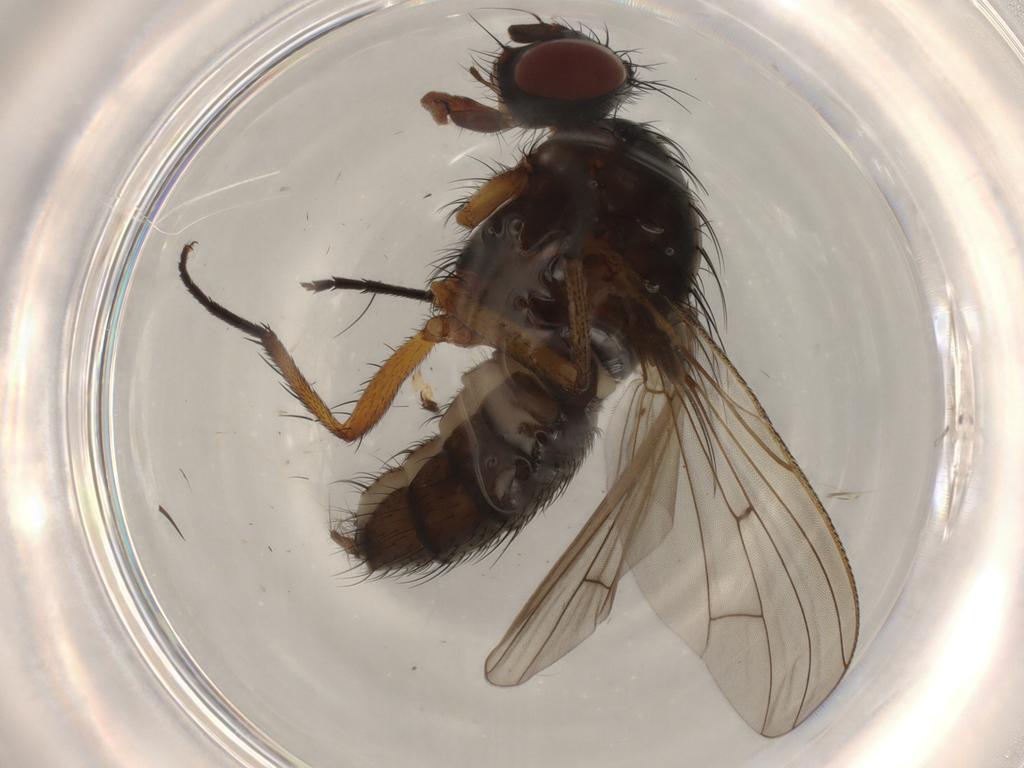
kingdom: Animalia
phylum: Arthropoda
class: Insecta
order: Diptera
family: Anthomyiidae
